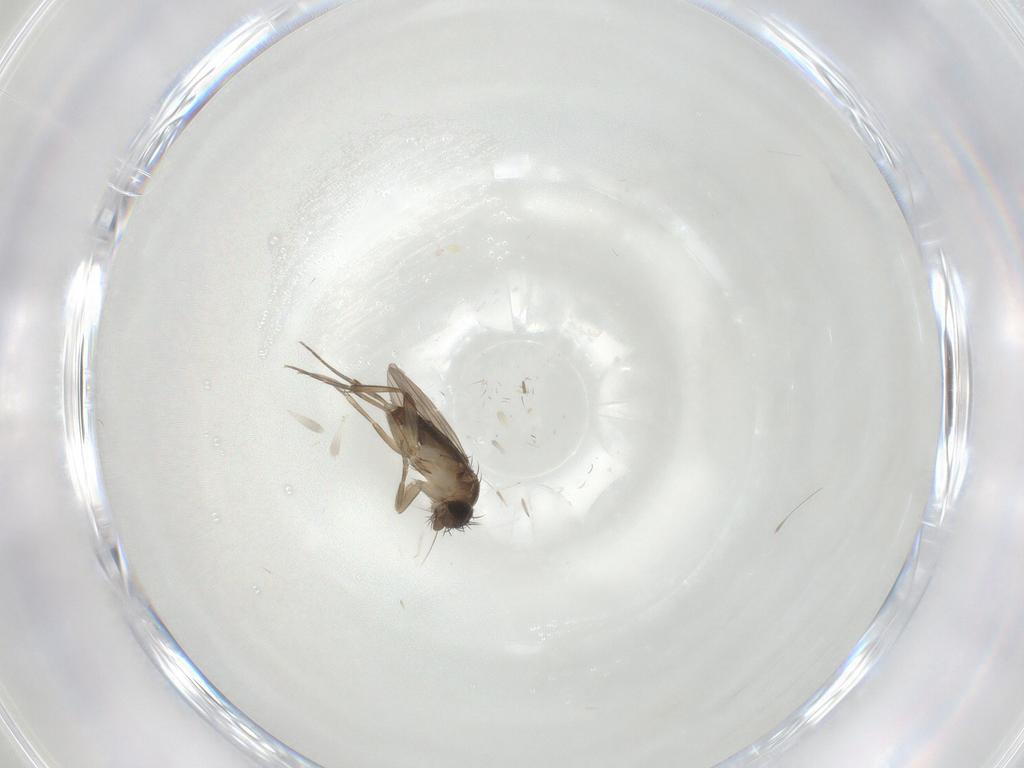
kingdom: Animalia
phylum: Arthropoda
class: Insecta
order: Diptera
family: Phoridae
